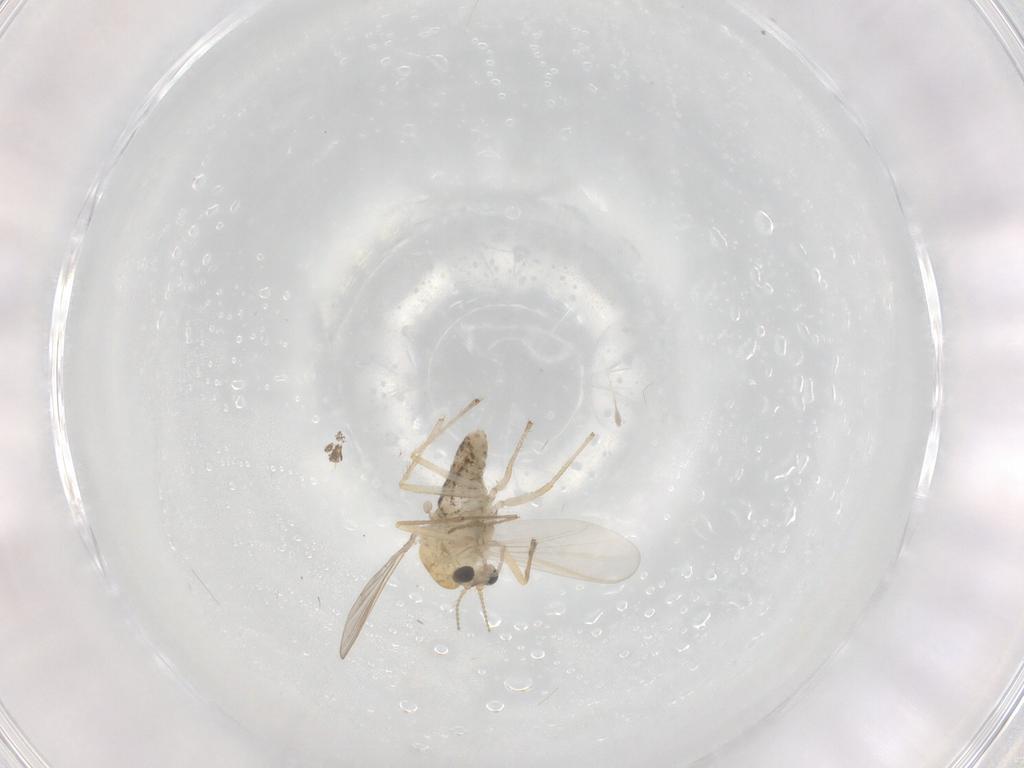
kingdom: Animalia
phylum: Arthropoda
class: Insecta
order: Diptera
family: Chironomidae
